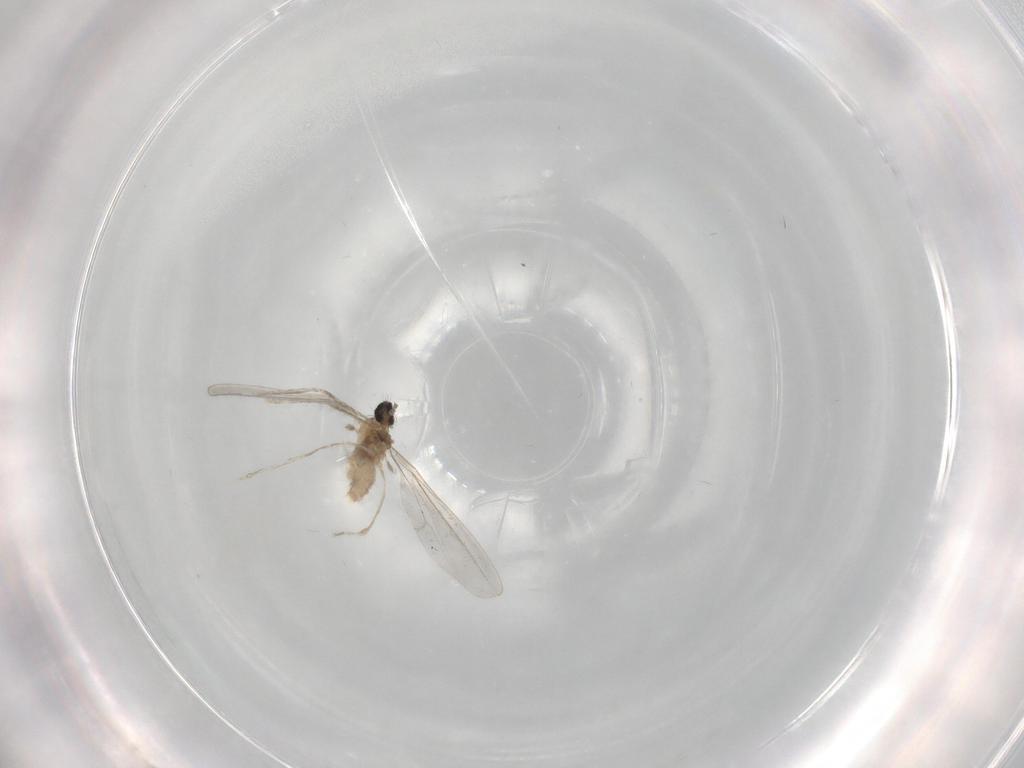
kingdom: Animalia
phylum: Arthropoda
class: Insecta
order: Diptera
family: Cecidomyiidae
